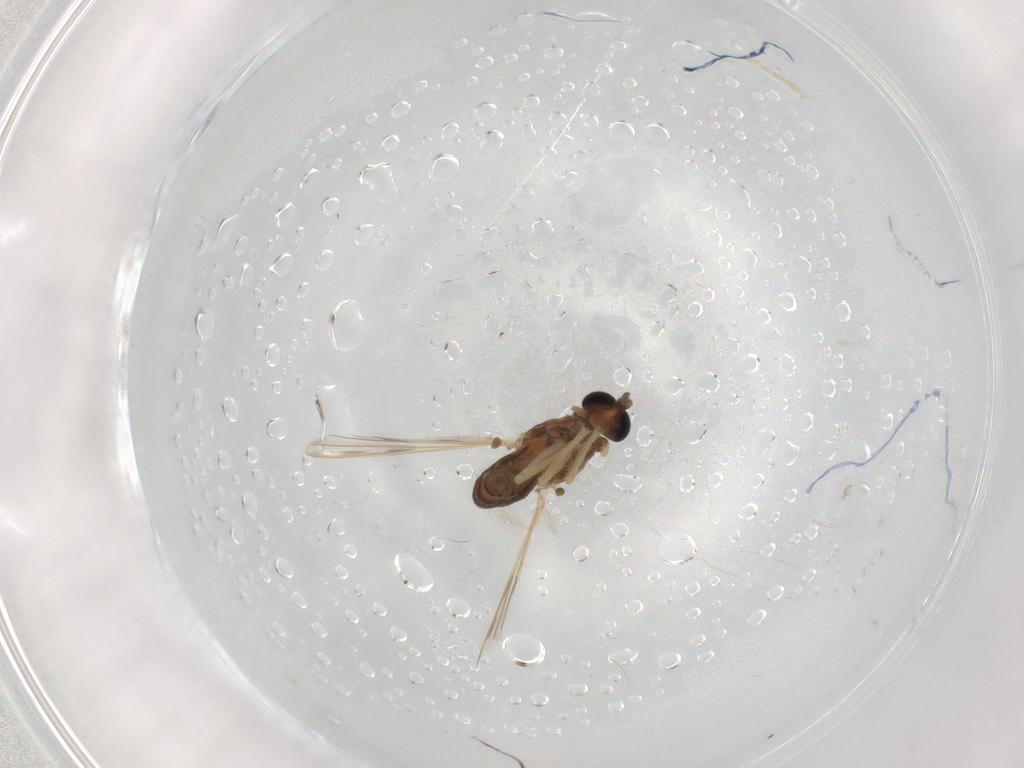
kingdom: Animalia
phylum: Arthropoda
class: Insecta
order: Diptera
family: Chironomidae
